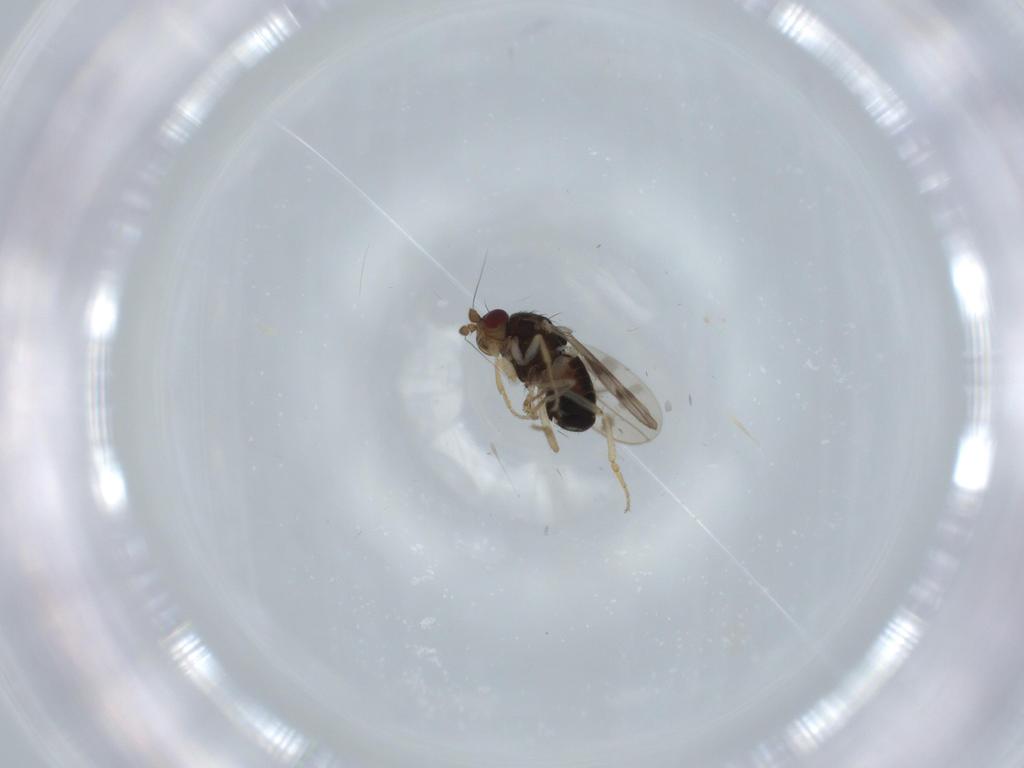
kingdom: Animalia
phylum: Arthropoda
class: Insecta
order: Diptera
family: Sphaeroceridae
